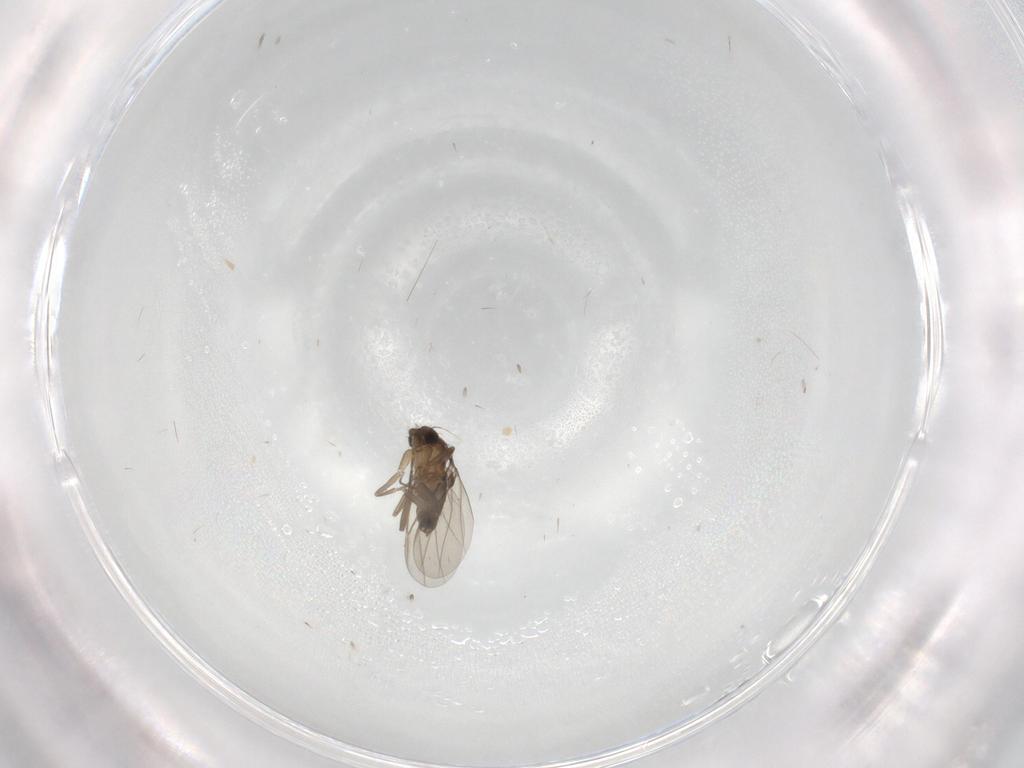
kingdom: Animalia
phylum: Arthropoda
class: Insecta
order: Diptera
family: Phoridae
